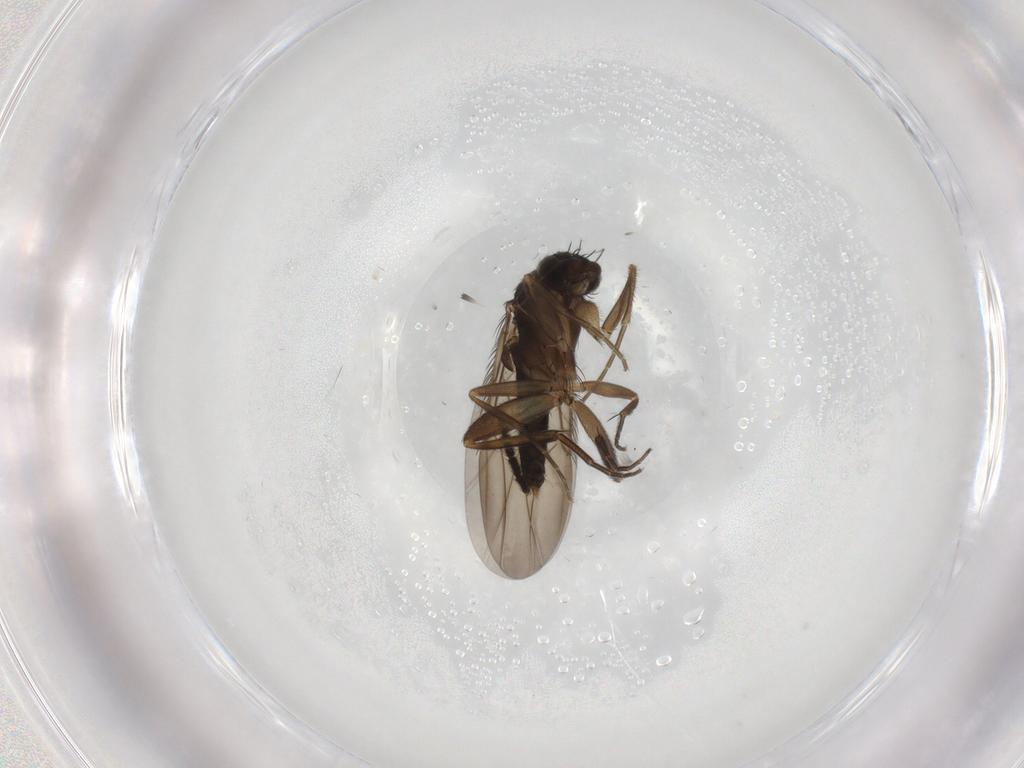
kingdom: Animalia
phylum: Arthropoda
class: Insecta
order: Diptera
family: Phoridae
